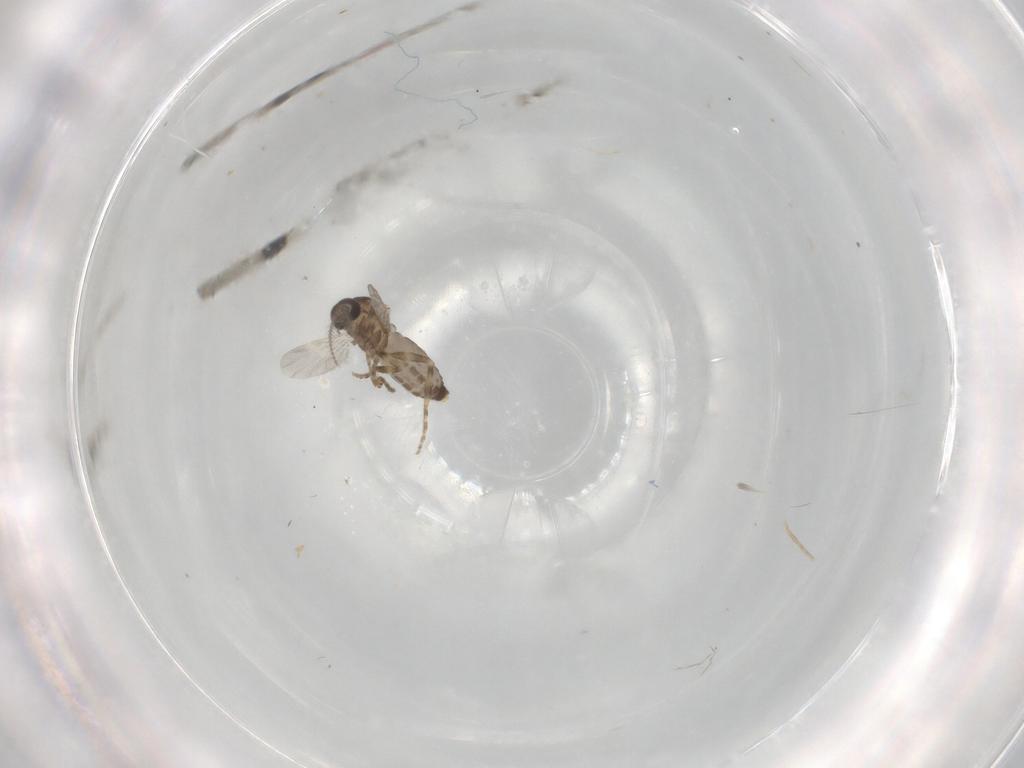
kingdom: Animalia
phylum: Arthropoda
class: Insecta
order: Diptera
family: Ceratopogonidae
